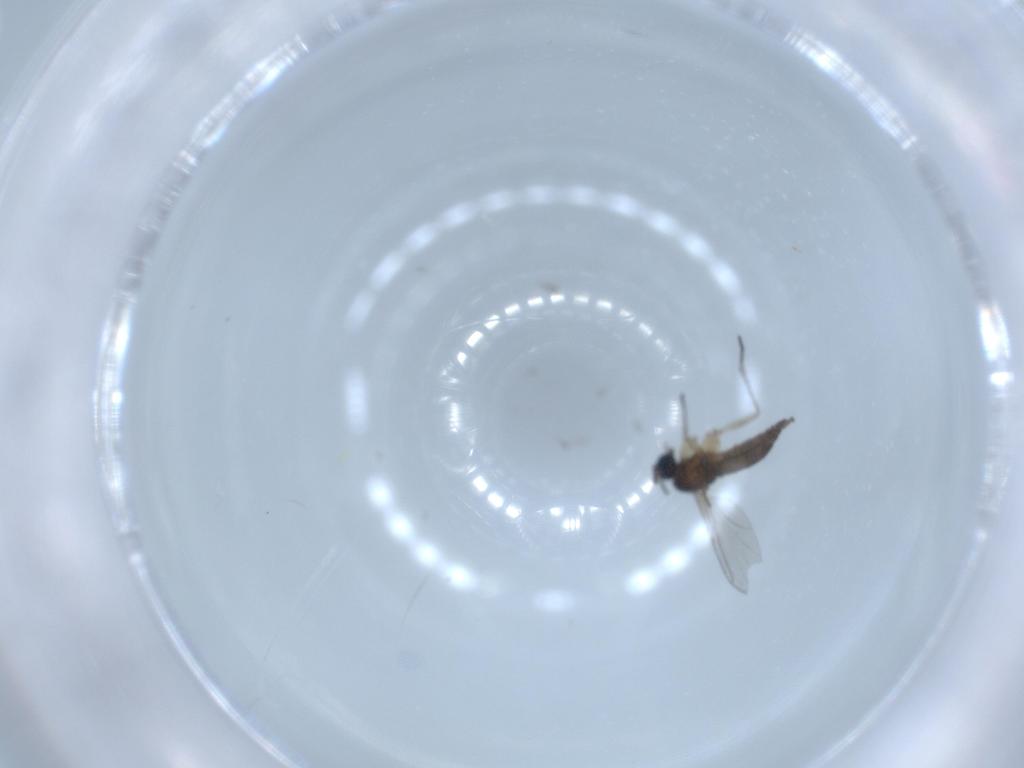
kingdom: Animalia
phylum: Arthropoda
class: Insecta
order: Diptera
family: Sciaridae
